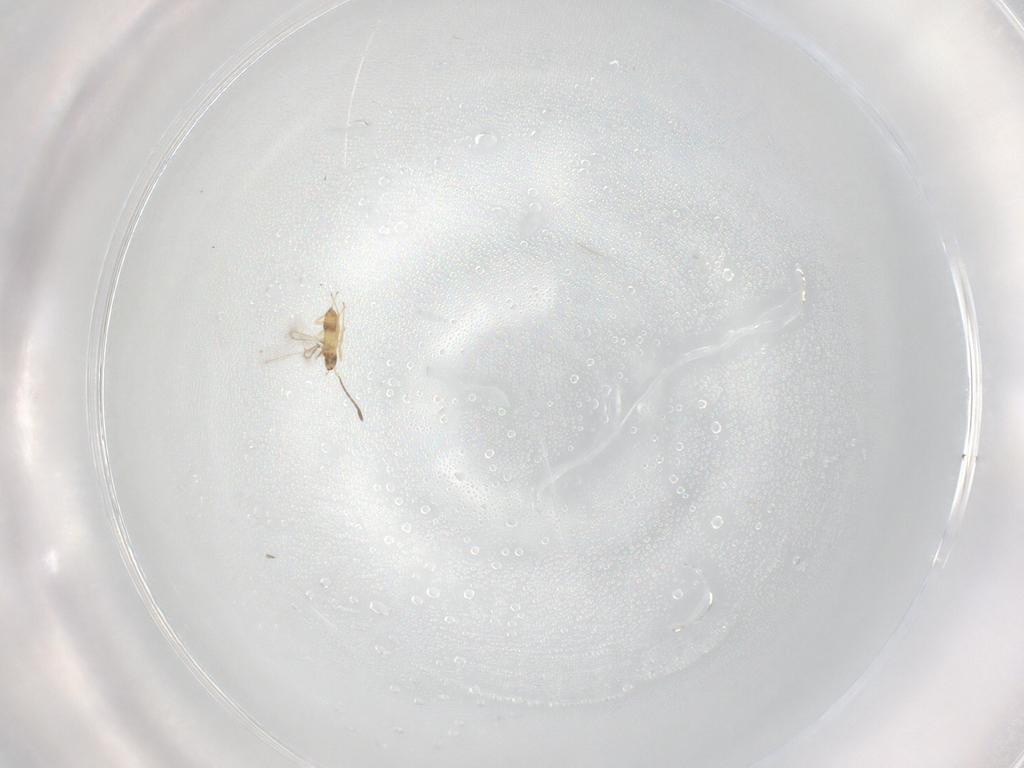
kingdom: Animalia
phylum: Arthropoda
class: Insecta
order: Hymenoptera
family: Mymaridae
